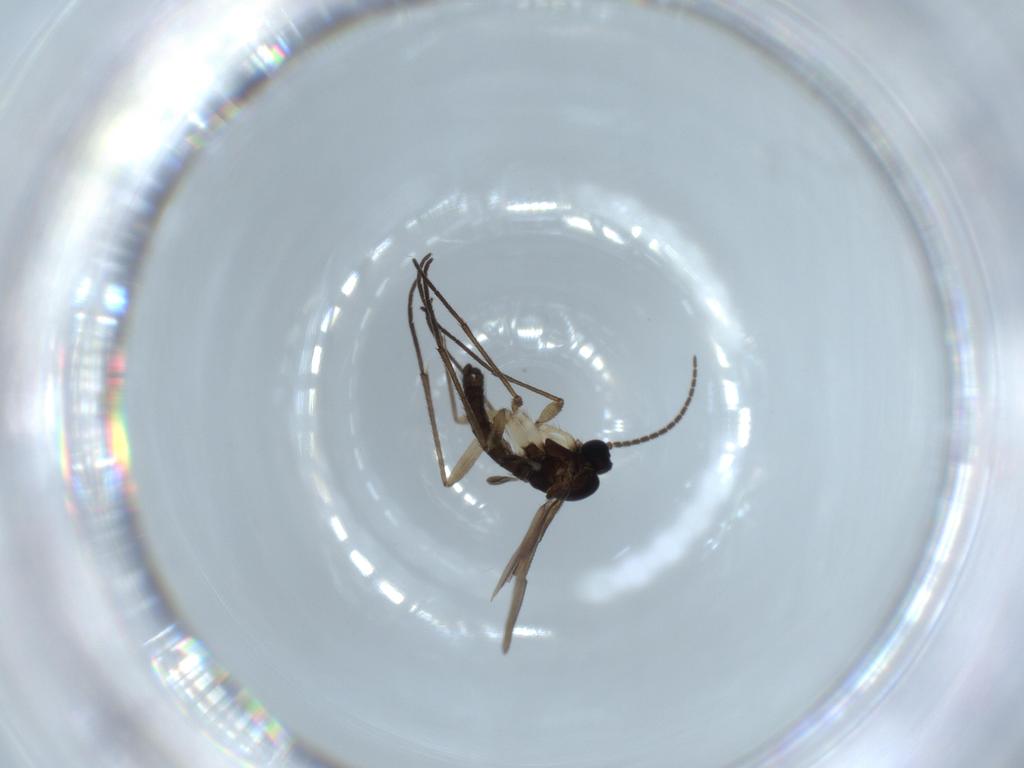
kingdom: Animalia
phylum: Arthropoda
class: Insecta
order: Diptera
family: Sciaridae
